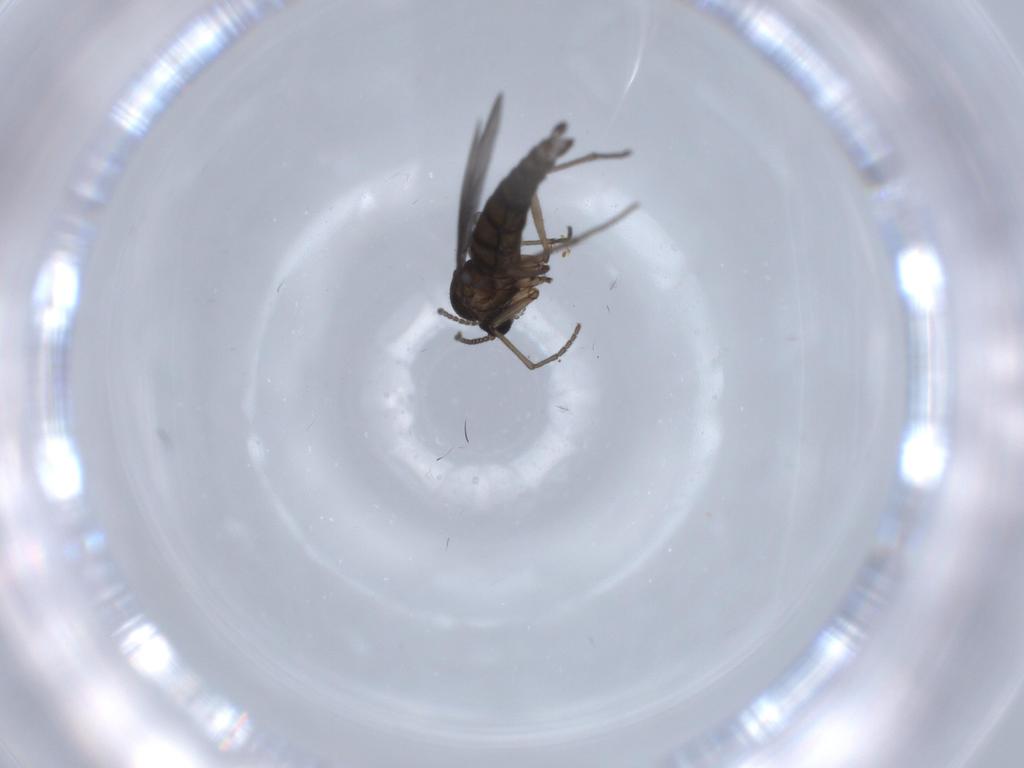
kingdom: Animalia
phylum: Arthropoda
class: Insecta
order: Diptera
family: Sciaridae
